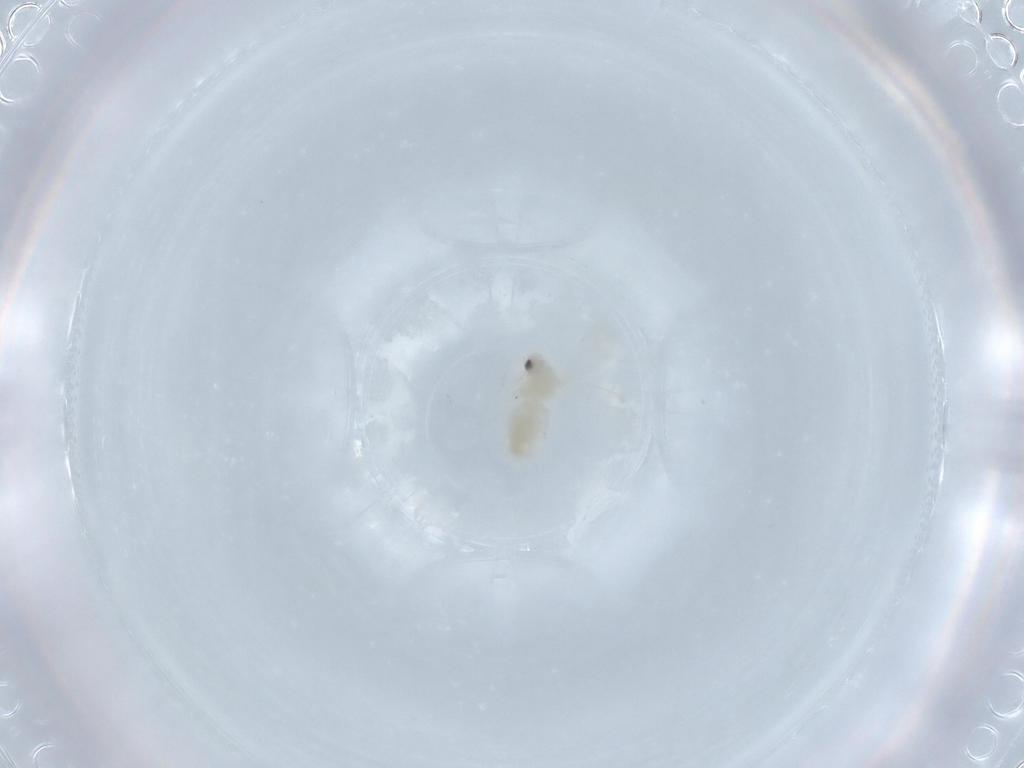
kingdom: Animalia
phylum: Arthropoda
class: Insecta
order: Hemiptera
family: Aleyrodidae
